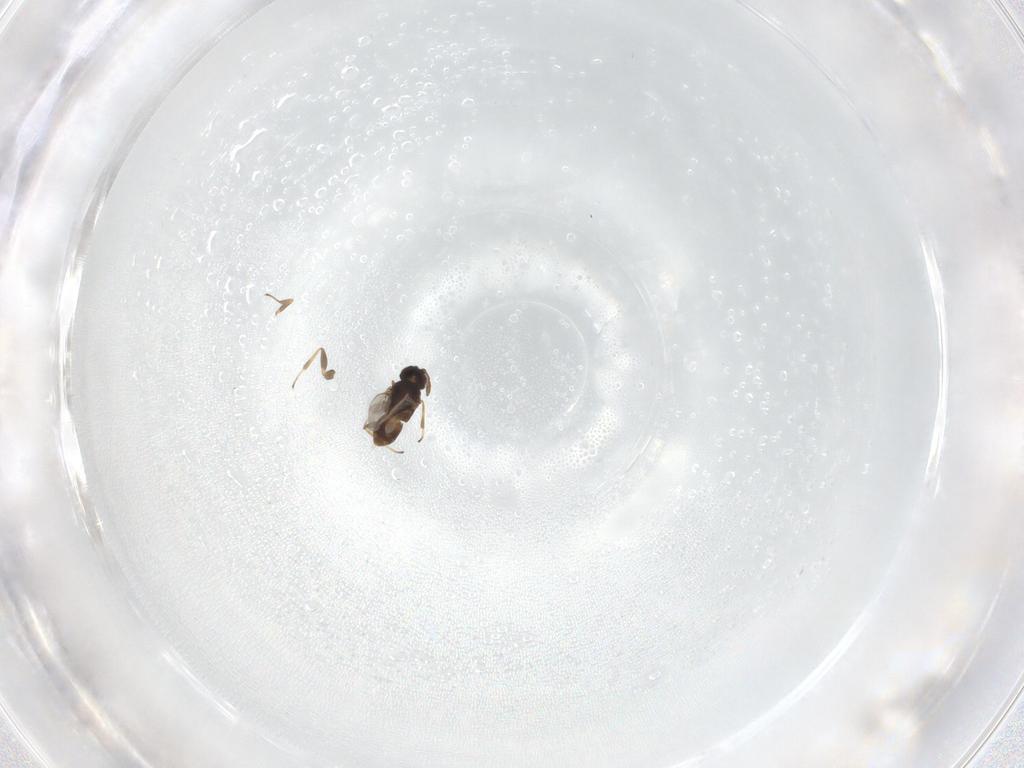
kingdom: Animalia
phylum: Arthropoda
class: Insecta
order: Hymenoptera
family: Encyrtidae
